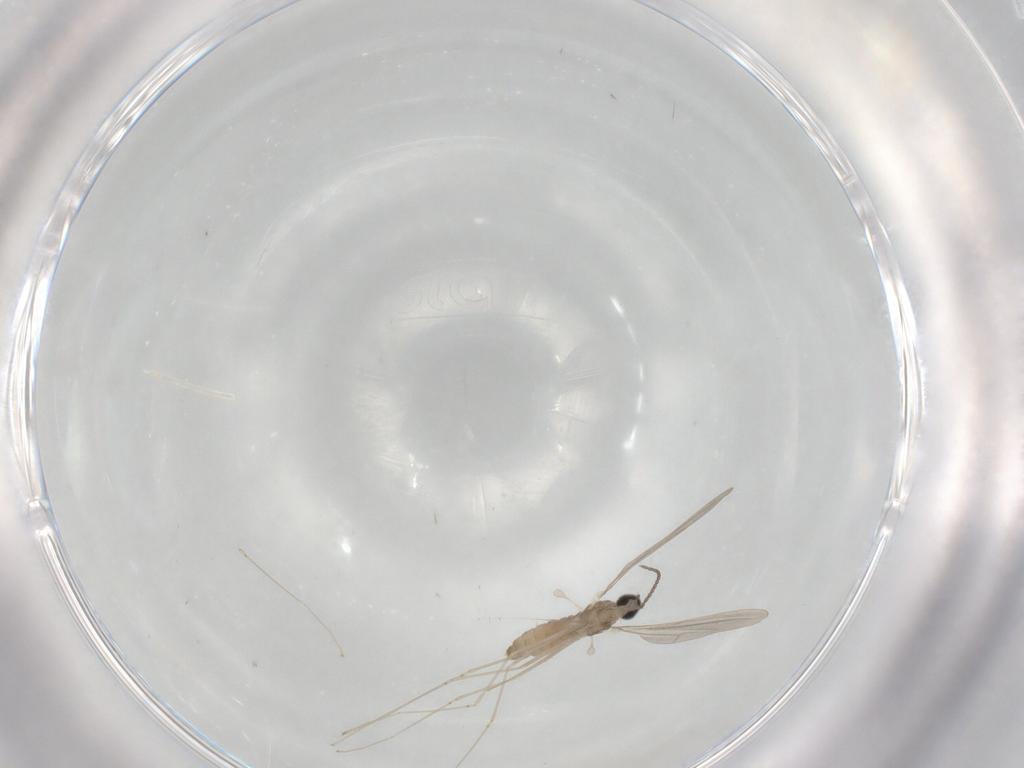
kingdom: Animalia
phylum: Arthropoda
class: Insecta
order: Diptera
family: Cecidomyiidae
